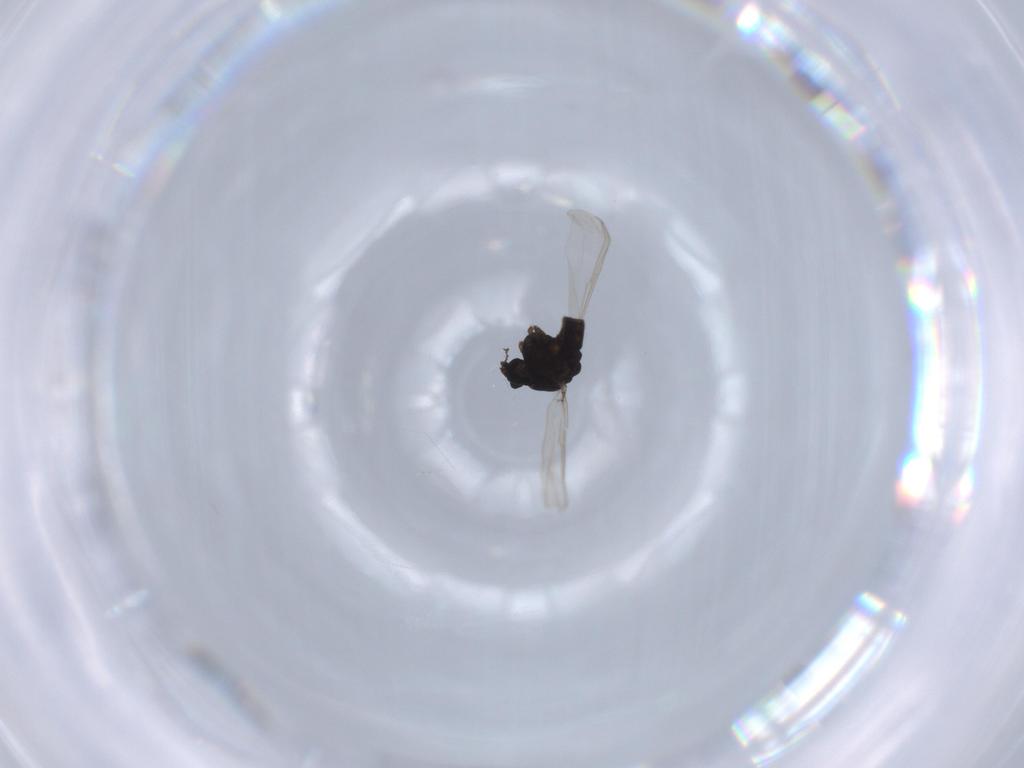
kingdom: Animalia
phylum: Arthropoda
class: Insecta
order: Diptera
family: Chironomidae
